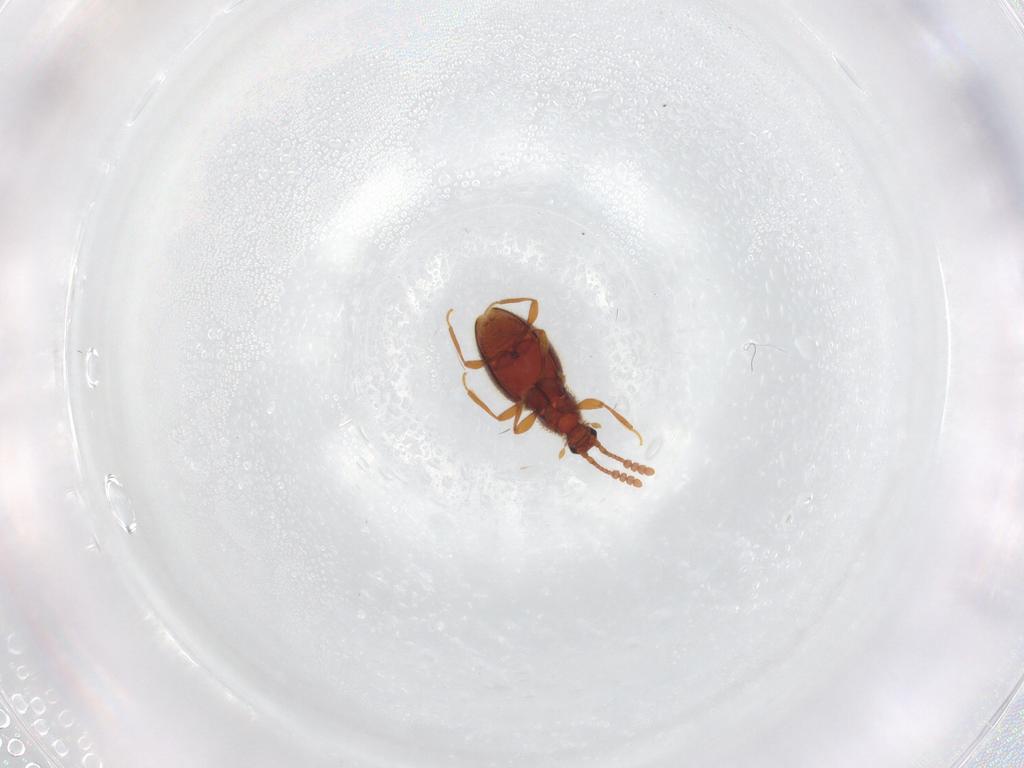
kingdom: Animalia
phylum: Arthropoda
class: Insecta
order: Coleoptera
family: Staphylinidae
